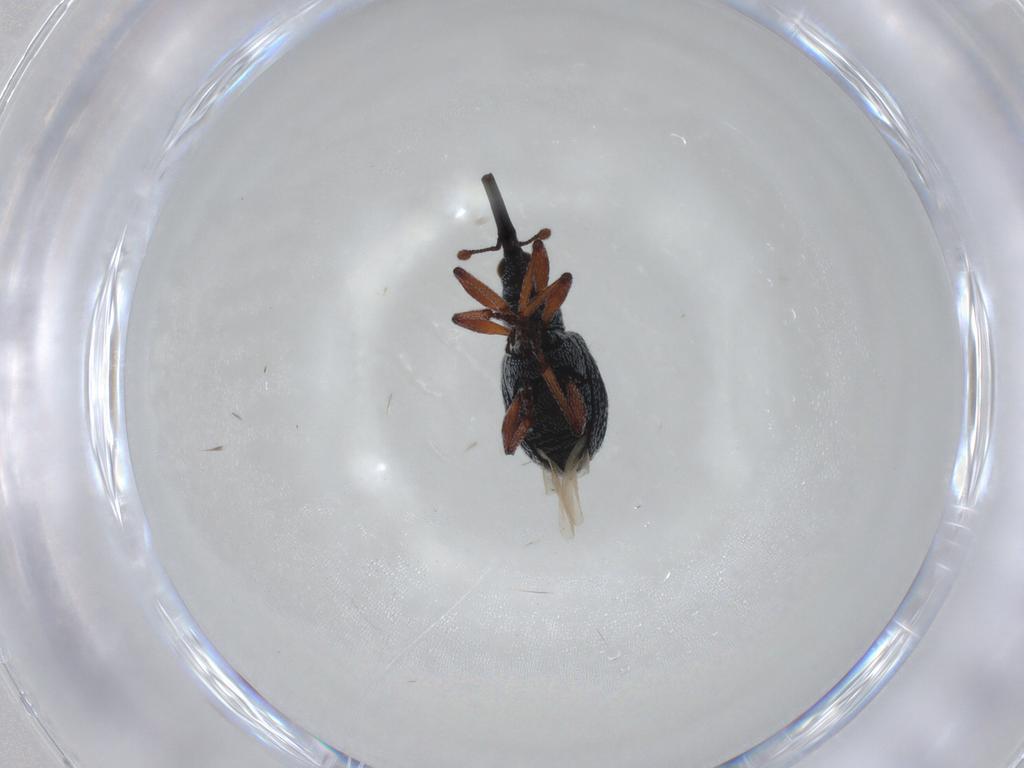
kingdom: Animalia
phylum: Arthropoda
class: Insecta
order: Coleoptera
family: Brentidae
